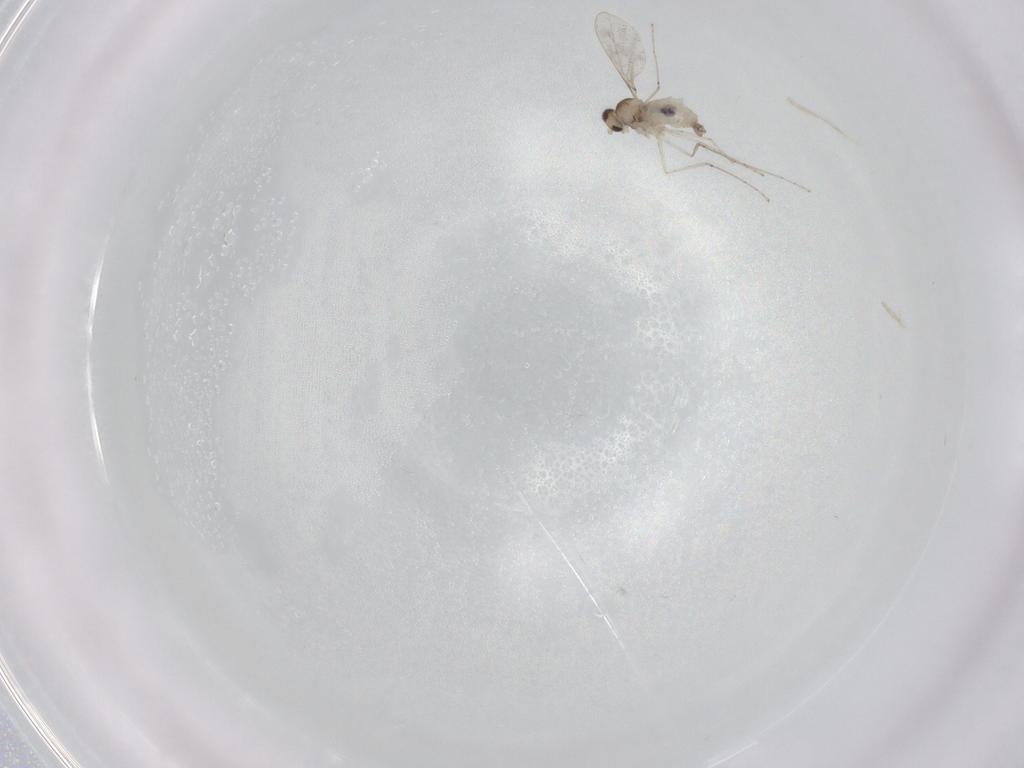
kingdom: Animalia
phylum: Arthropoda
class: Insecta
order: Diptera
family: Cecidomyiidae
